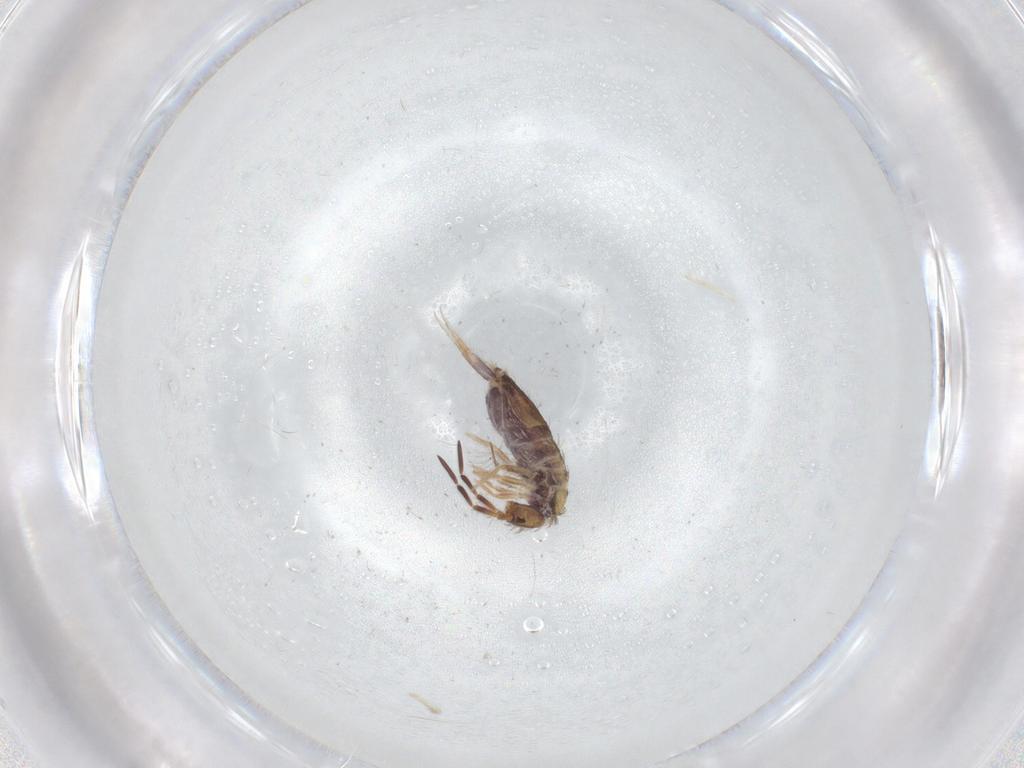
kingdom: Animalia
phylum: Arthropoda
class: Collembola
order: Entomobryomorpha
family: Entomobryidae
